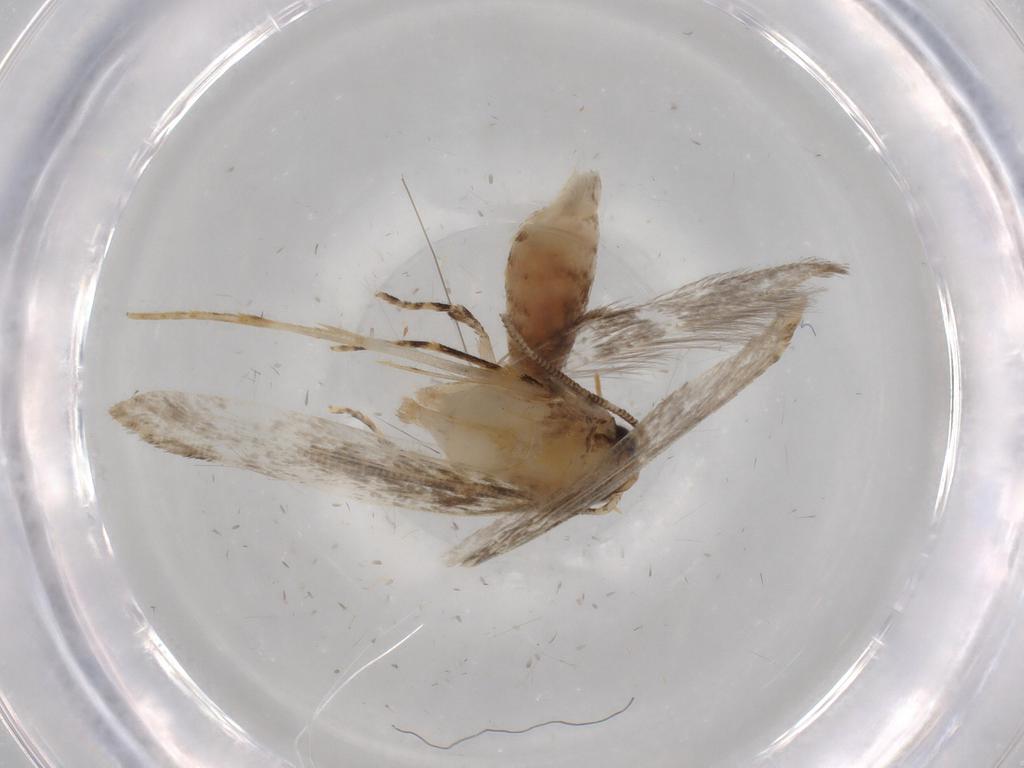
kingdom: Animalia
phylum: Arthropoda
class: Insecta
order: Lepidoptera
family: Tineidae
